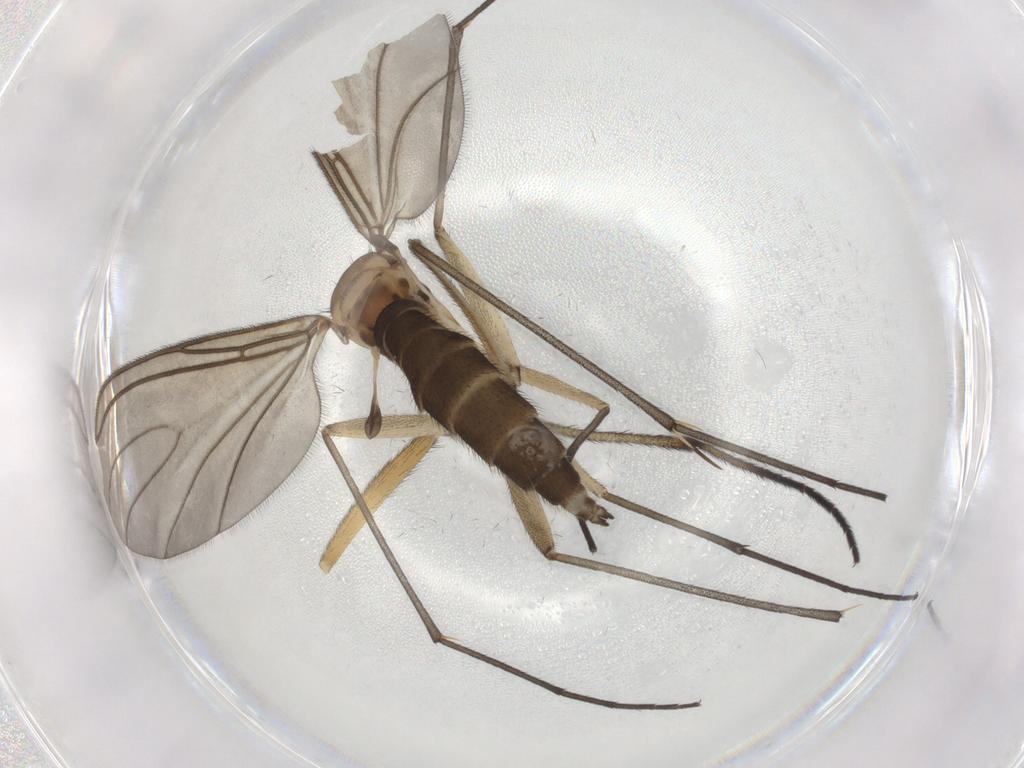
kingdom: Animalia
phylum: Arthropoda
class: Insecta
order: Diptera
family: Sciaridae
